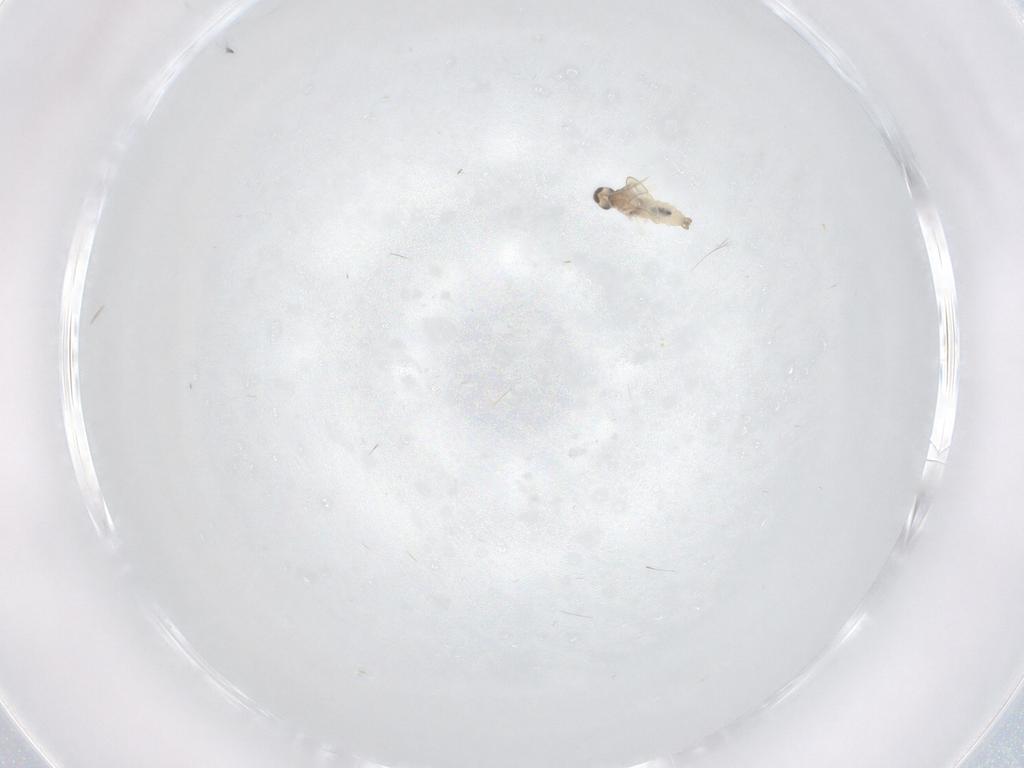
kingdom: Animalia
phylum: Arthropoda
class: Insecta
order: Diptera
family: Cecidomyiidae
